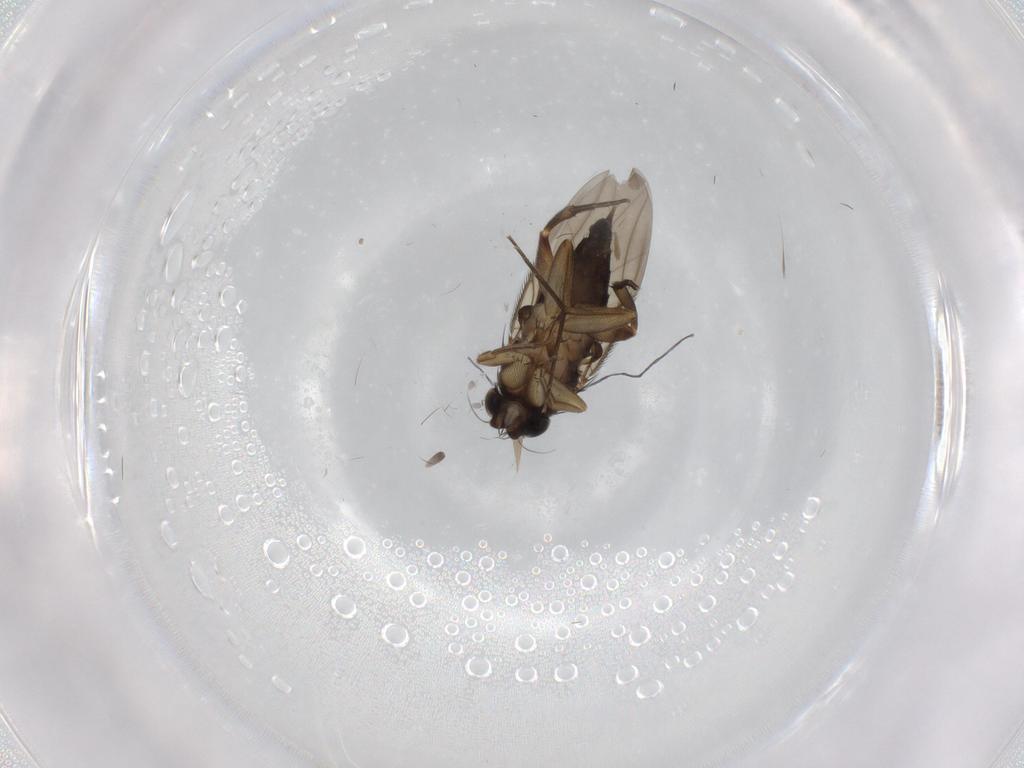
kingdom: Animalia
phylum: Arthropoda
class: Insecta
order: Diptera
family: Phoridae
